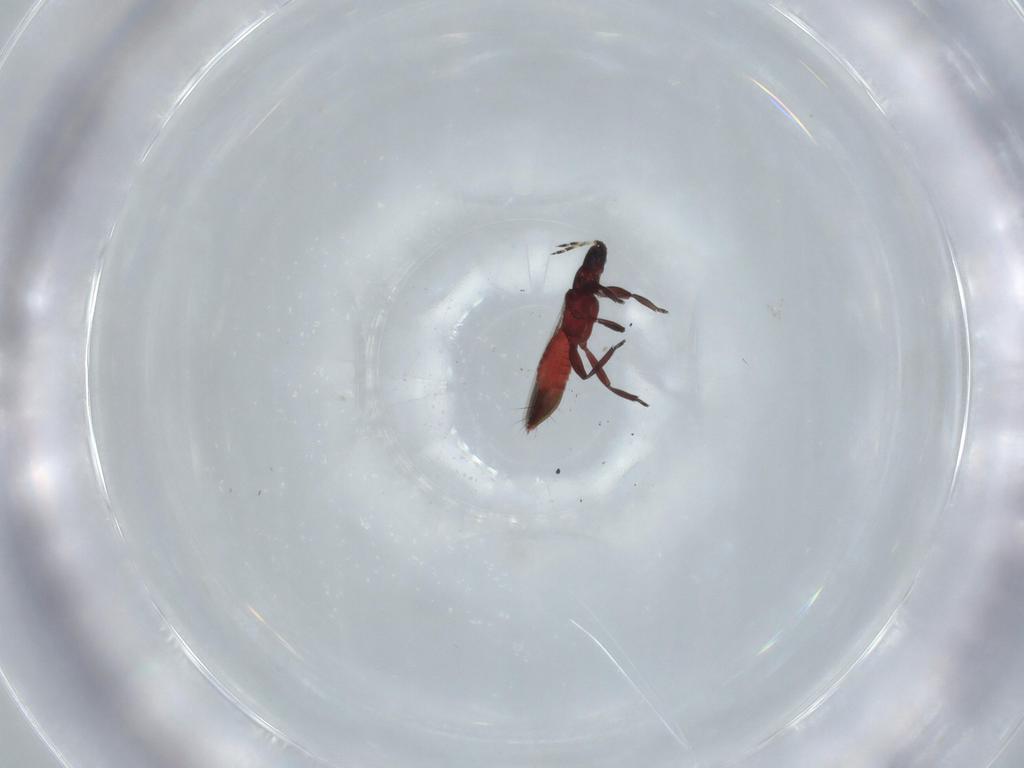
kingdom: Animalia
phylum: Arthropoda
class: Insecta
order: Thysanoptera
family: Aeolothripidae
